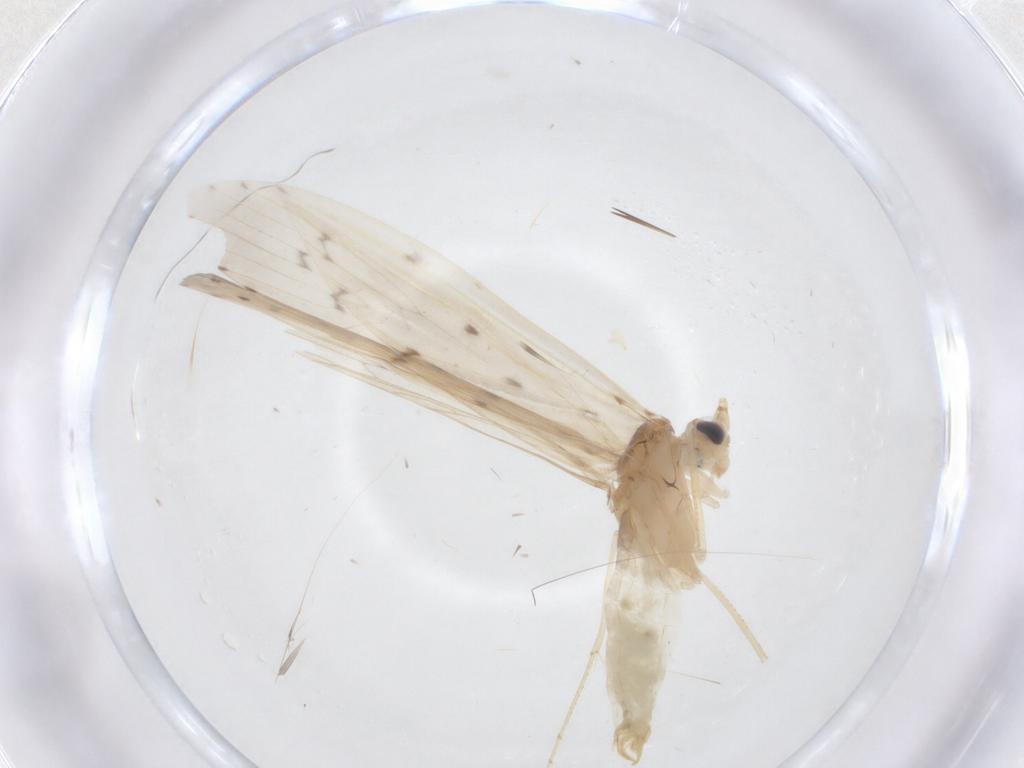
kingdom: Animalia
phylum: Arthropoda
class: Insecta
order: Trichoptera
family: Leptoceridae
